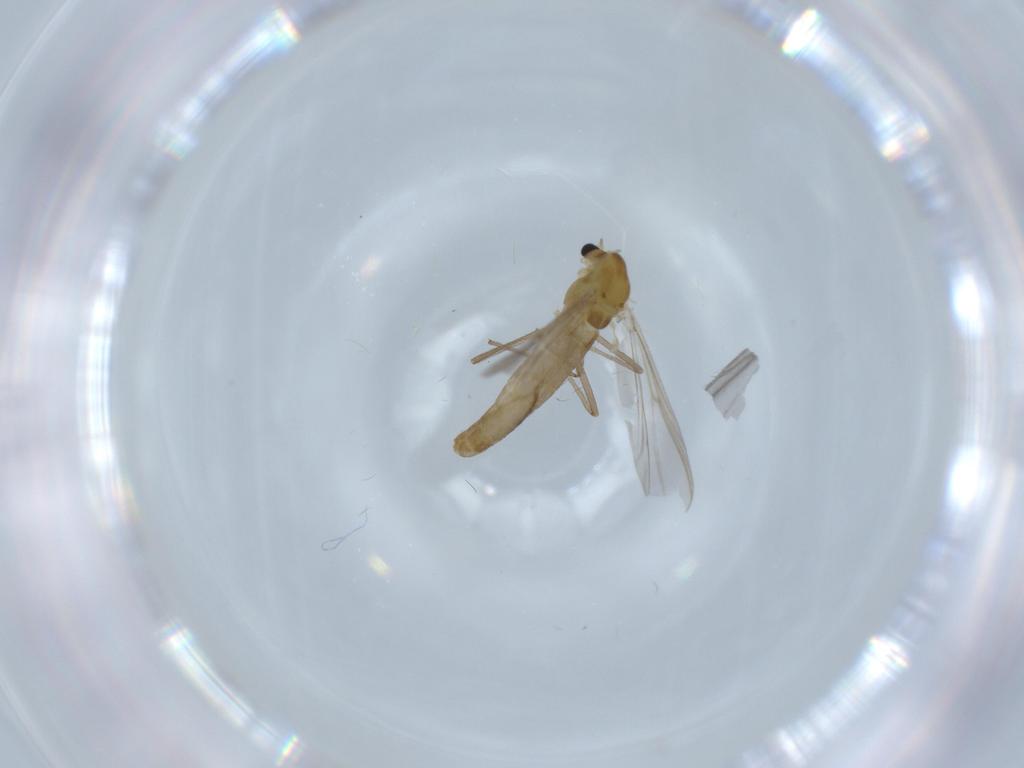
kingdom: Animalia
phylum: Arthropoda
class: Insecta
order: Diptera
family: Chironomidae
